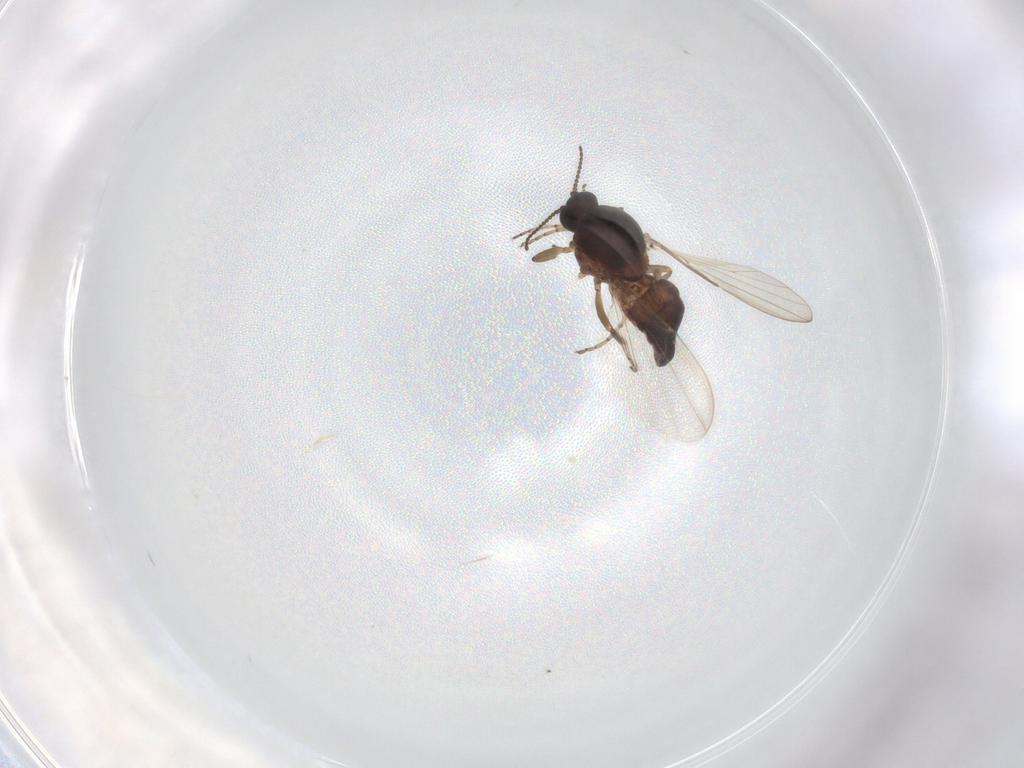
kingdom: Animalia
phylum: Arthropoda
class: Insecta
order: Diptera
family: Ceratopogonidae
